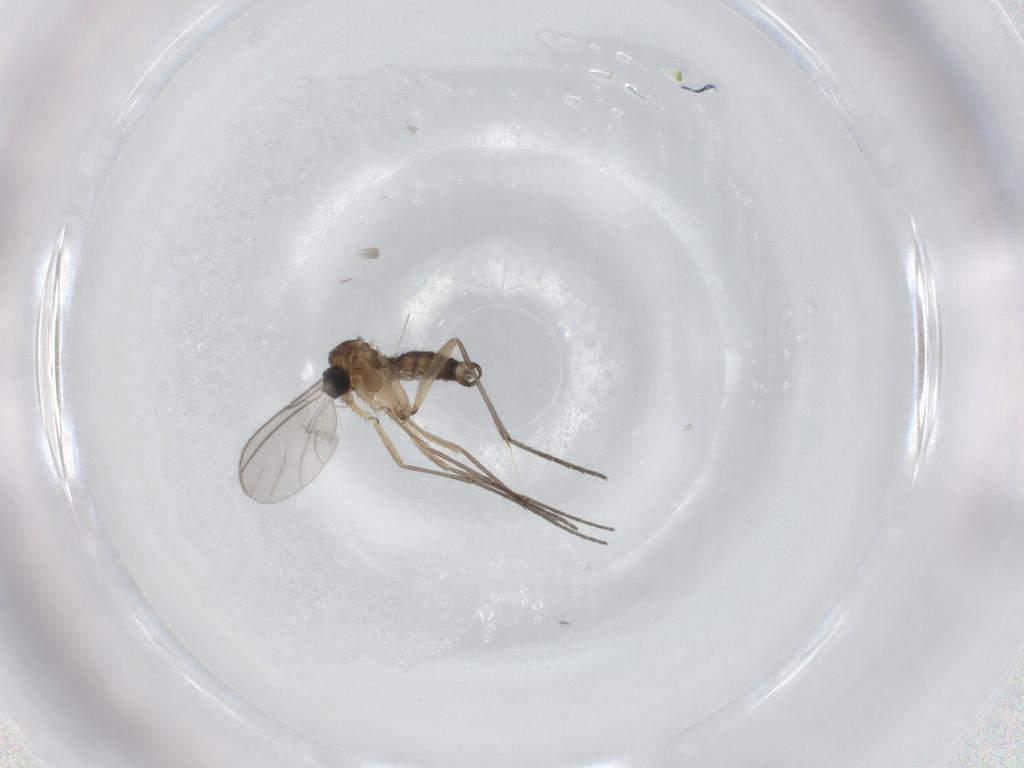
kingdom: Animalia
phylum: Arthropoda
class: Insecta
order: Diptera
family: Sciaridae
